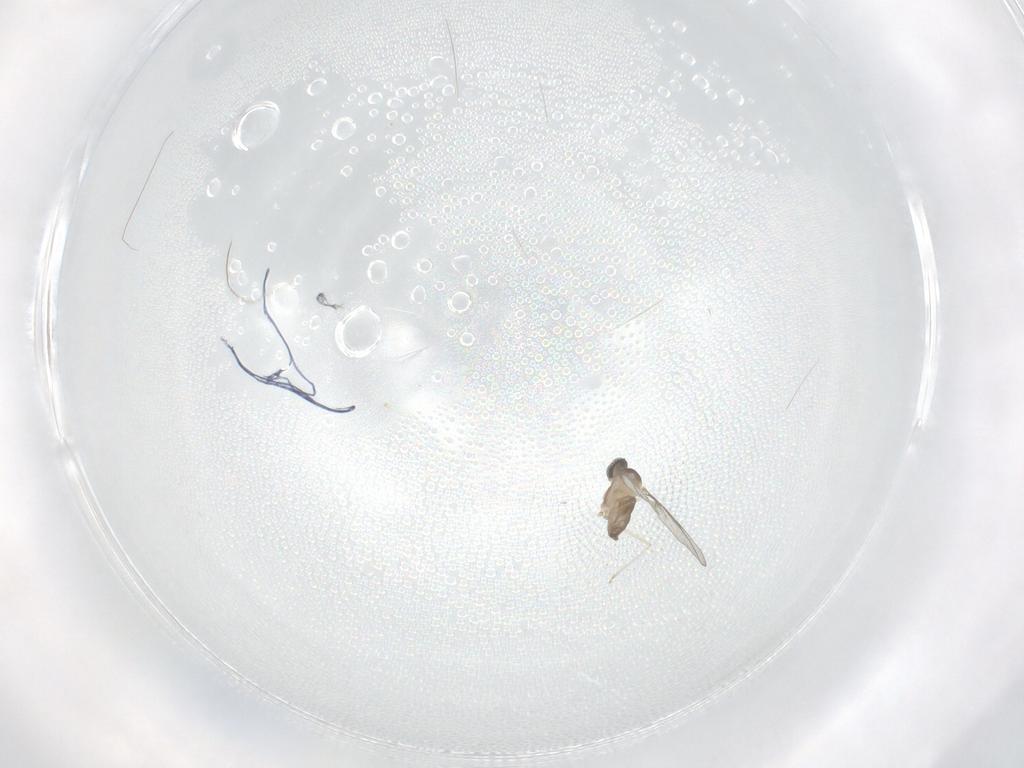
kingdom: Animalia
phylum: Arthropoda
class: Insecta
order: Diptera
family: Cecidomyiidae
